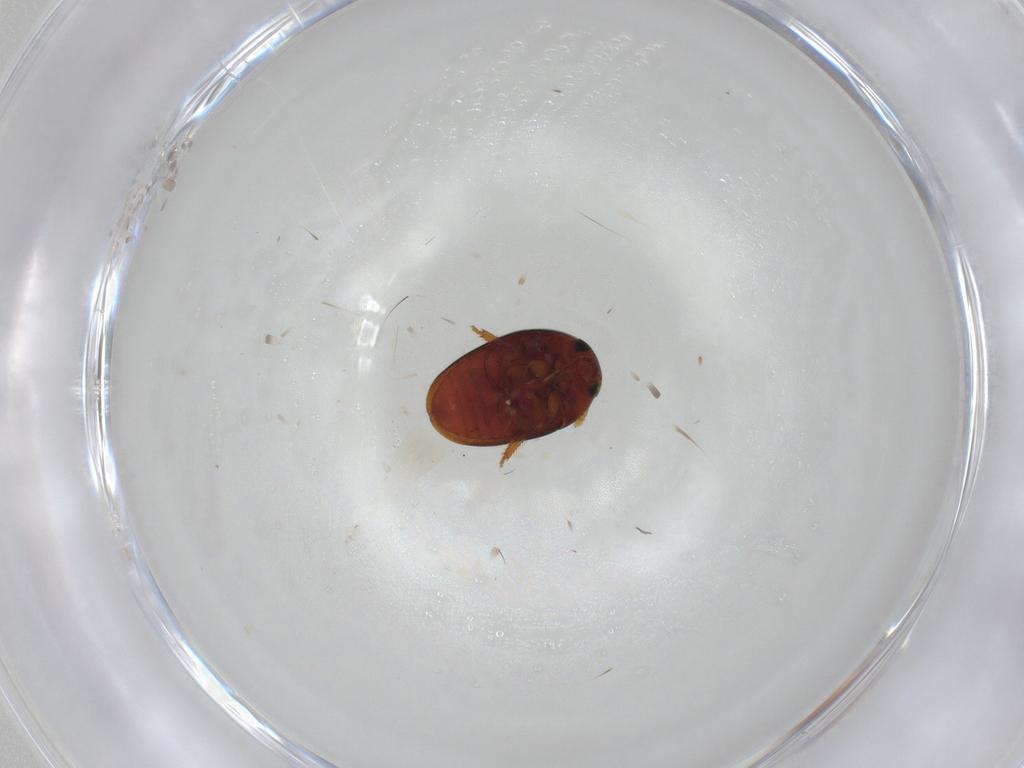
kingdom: Animalia
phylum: Arthropoda
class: Insecta
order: Coleoptera
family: Phalacridae
